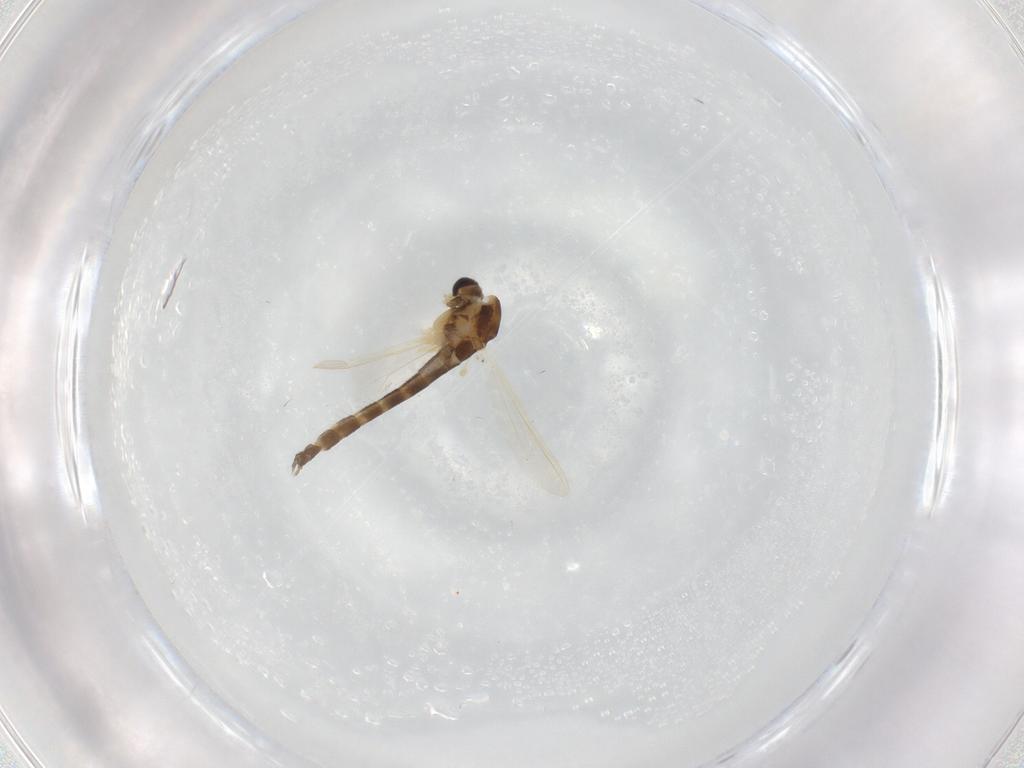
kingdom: Animalia
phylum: Arthropoda
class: Insecta
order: Diptera
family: Chironomidae
